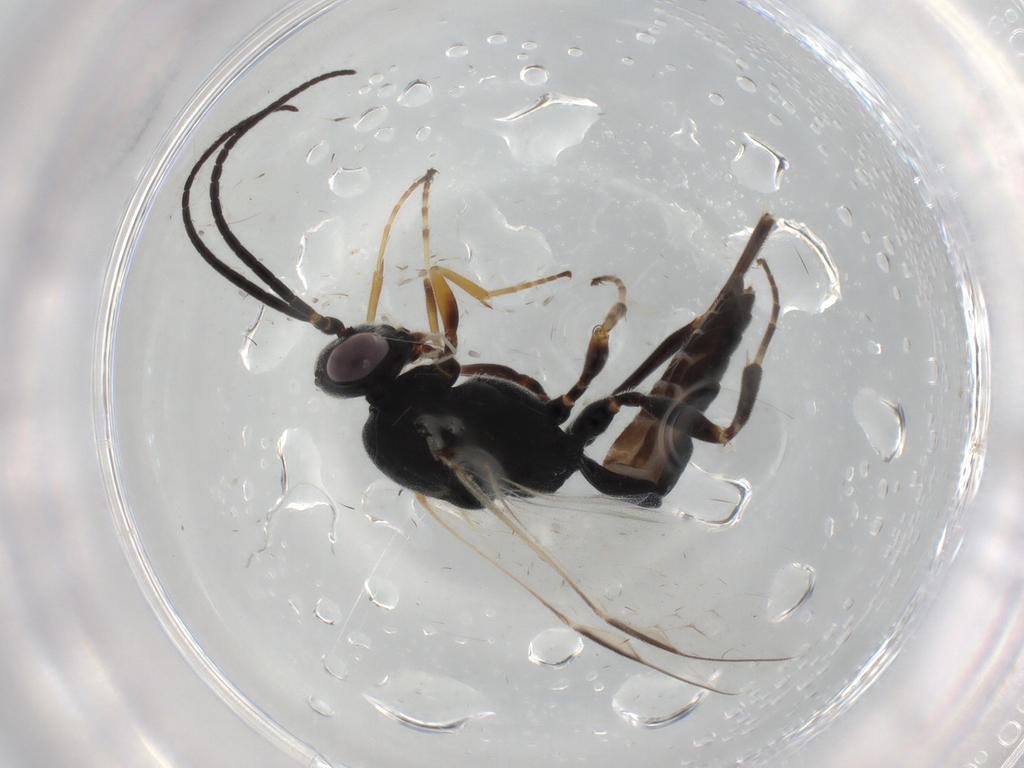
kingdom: Animalia
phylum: Arthropoda
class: Insecta
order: Hymenoptera
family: Ichneumonidae
